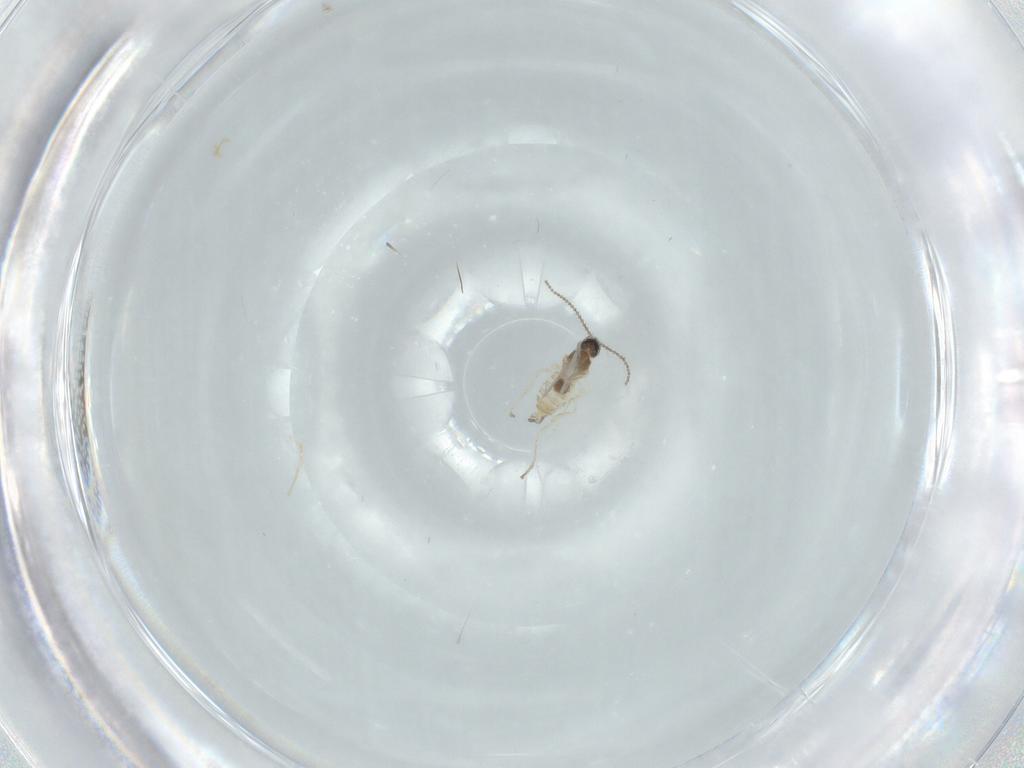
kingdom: Animalia
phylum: Arthropoda
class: Insecta
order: Diptera
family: Cecidomyiidae
